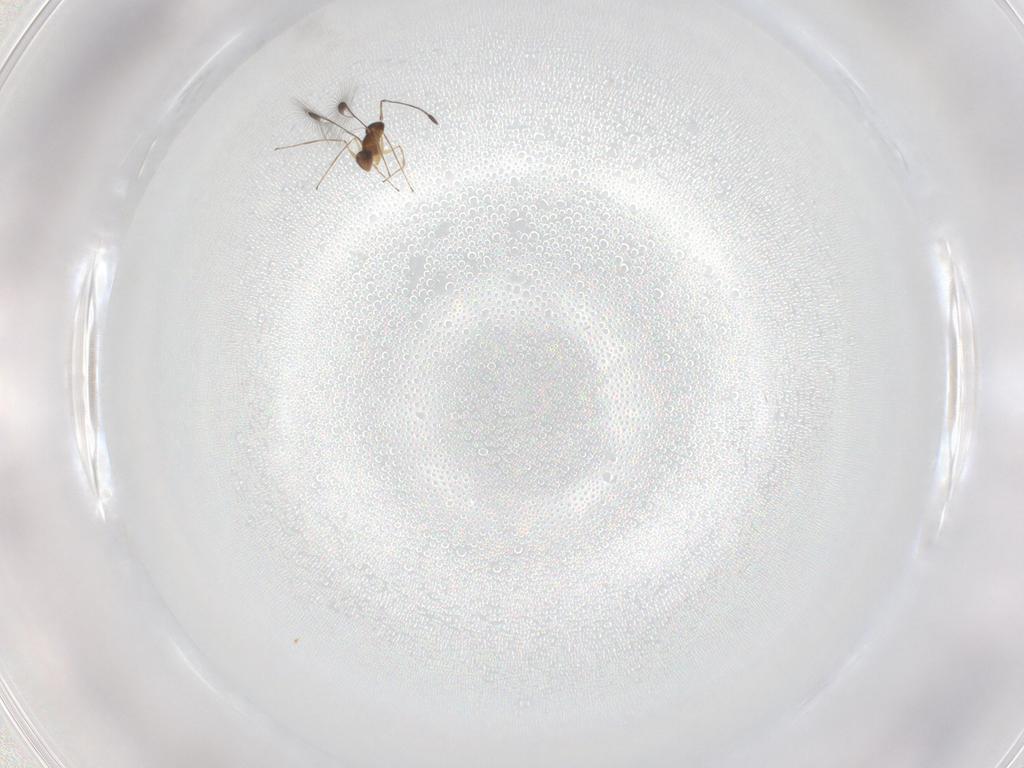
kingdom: Animalia
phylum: Arthropoda
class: Insecta
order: Hymenoptera
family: Mymaridae
